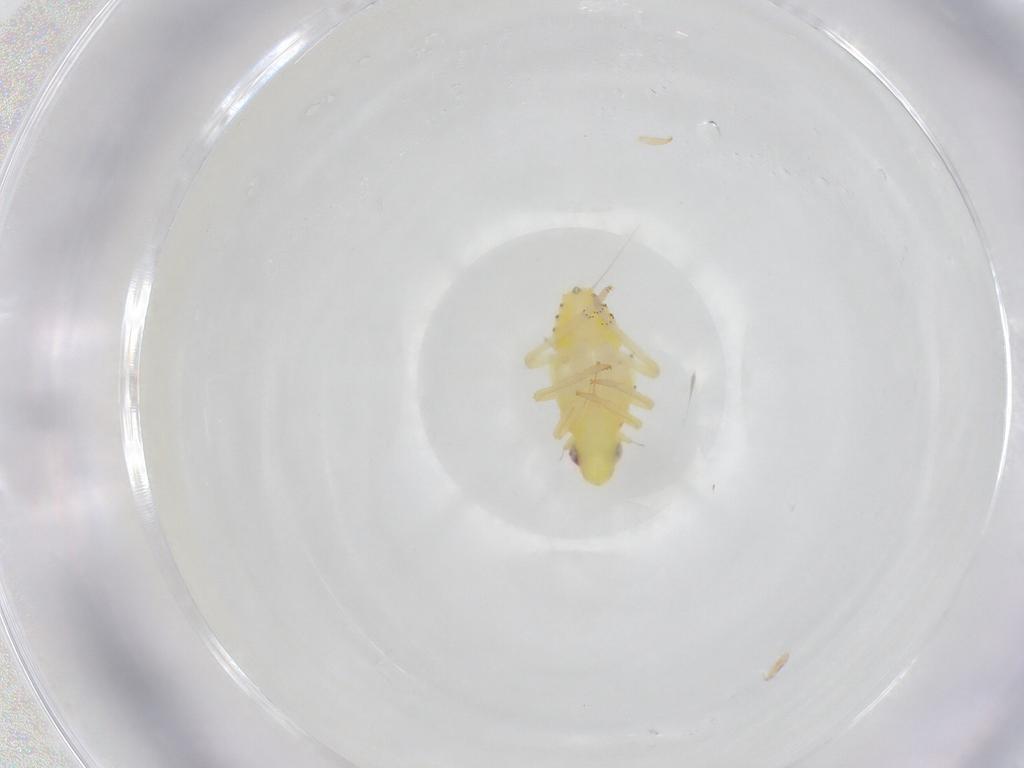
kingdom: Animalia
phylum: Arthropoda
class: Insecta
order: Hemiptera
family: Tropiduchidae
